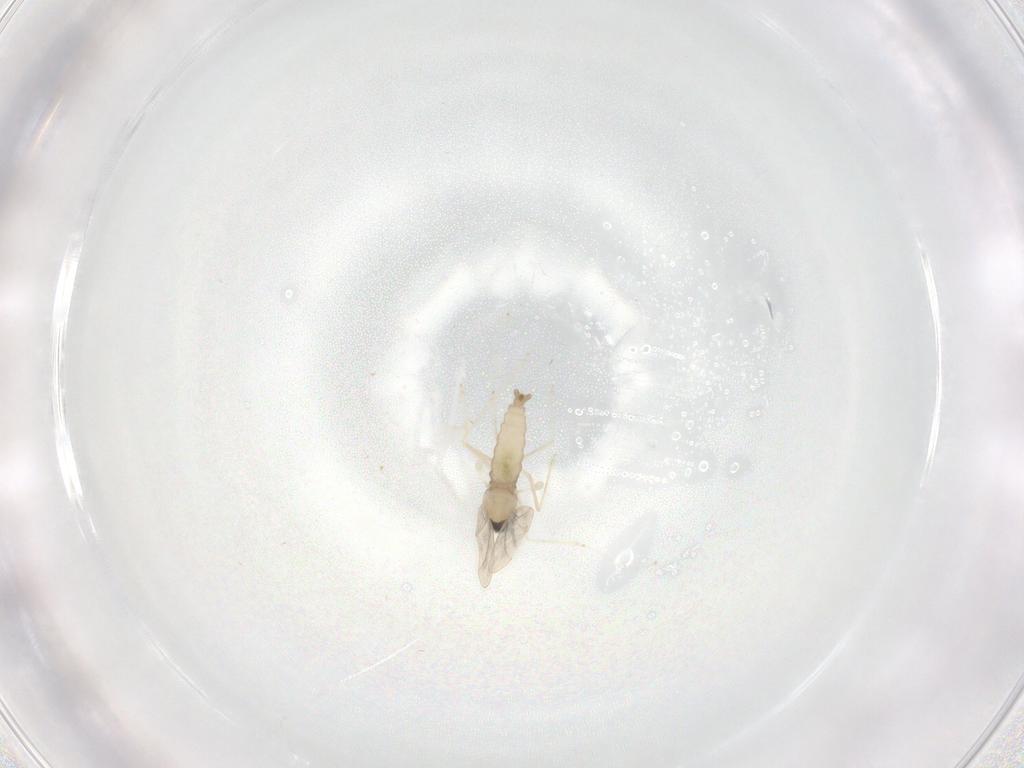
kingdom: Animalia
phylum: Arthropoda
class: Insecta
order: Diptera
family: Cecidomyiidae
